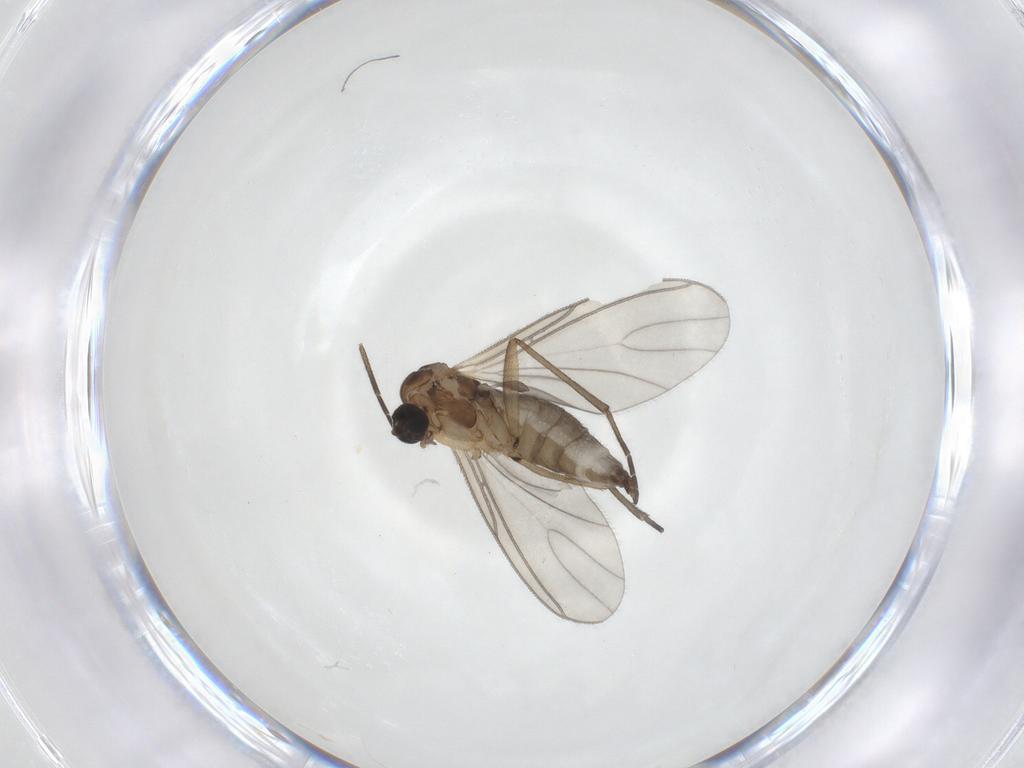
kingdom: Animalia
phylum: Arthropoda
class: Insecta
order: Diptera
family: Sciaridae
